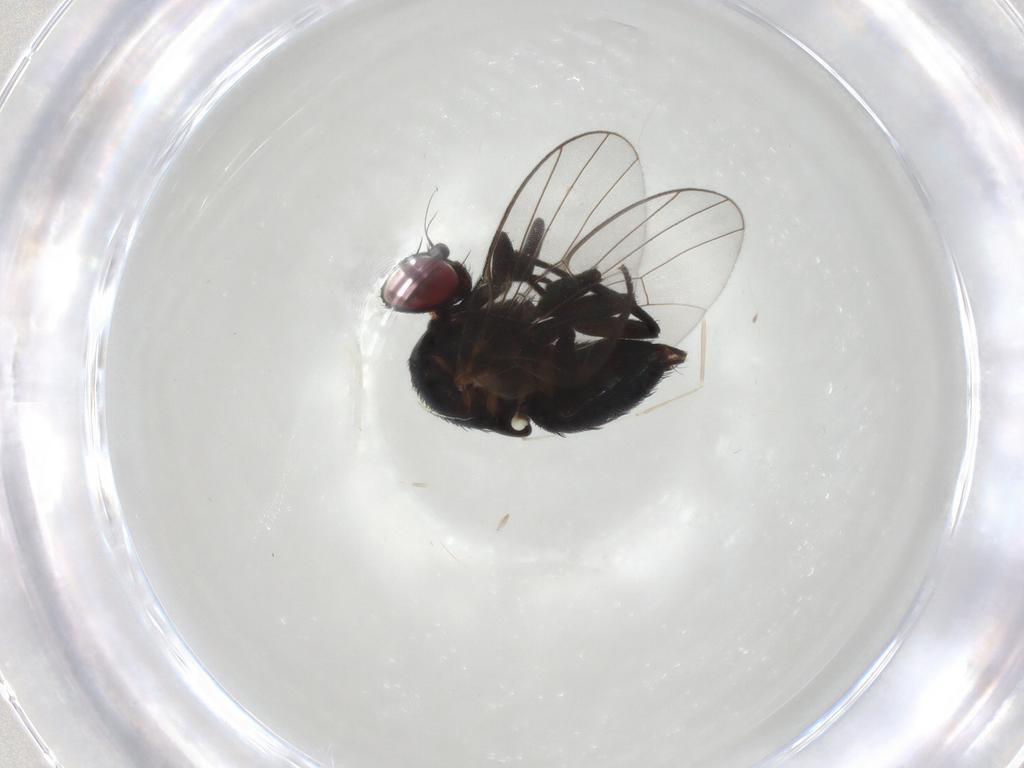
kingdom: Animalia
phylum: Arthropoda
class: Insecta
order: Diptera
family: Agromyzidae
